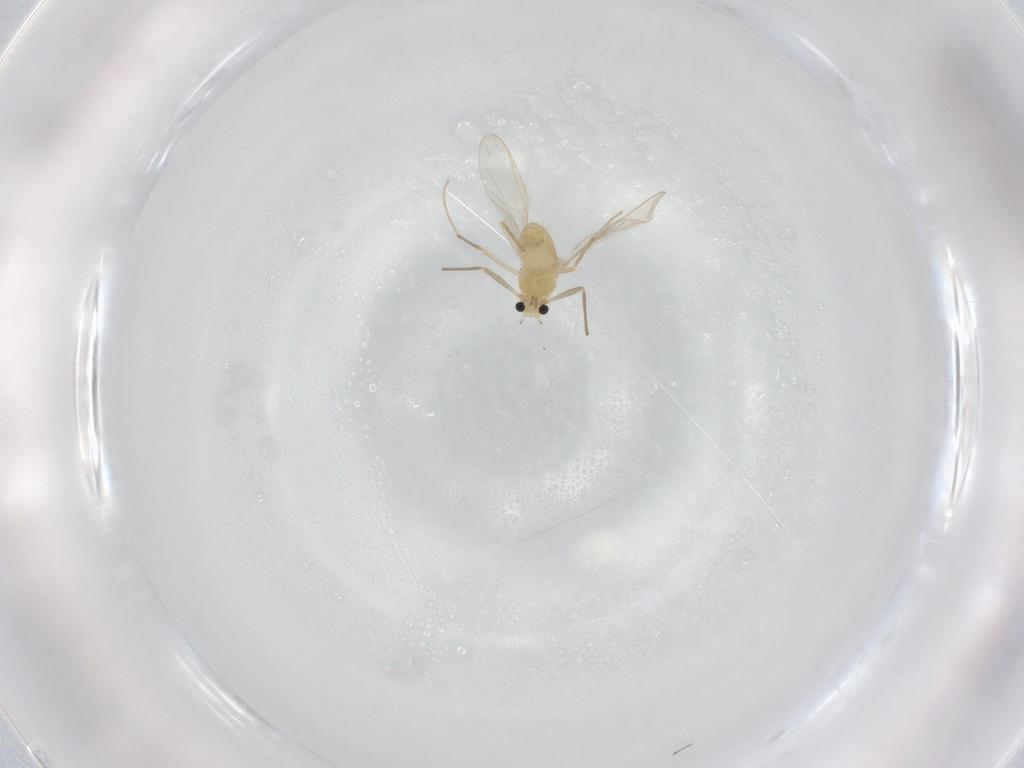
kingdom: Animalia
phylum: Arthropoda
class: Insecta
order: Diptera
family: Chironomidae
